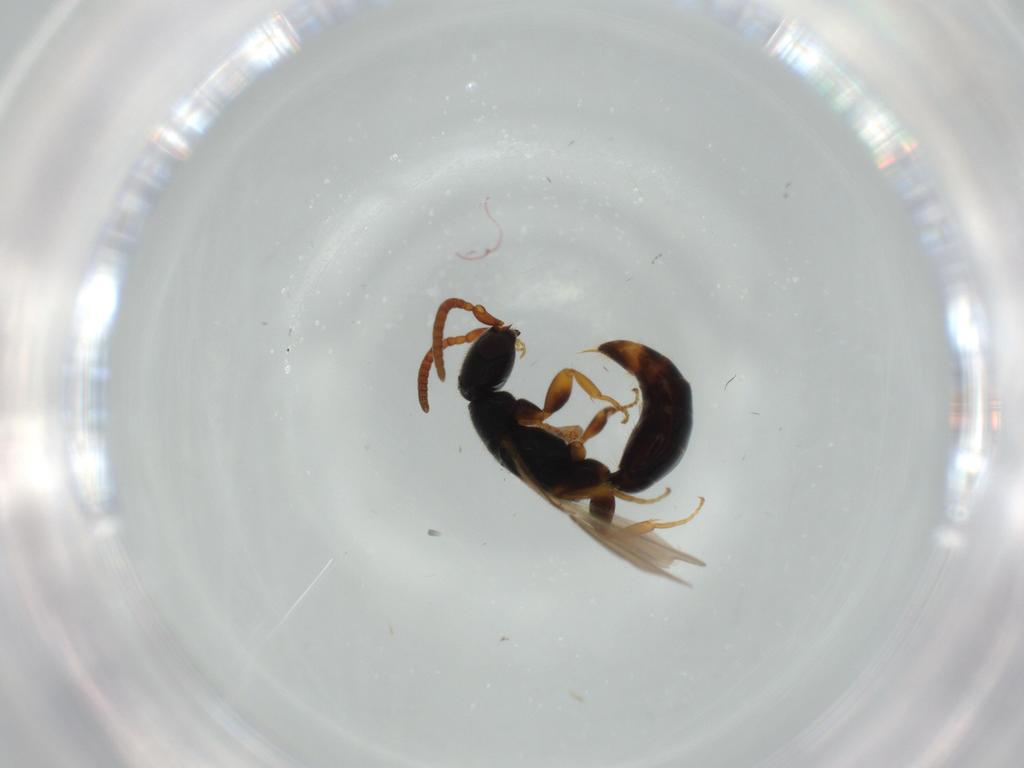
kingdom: Animalia
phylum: Arthropoda
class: Insecta
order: Hymenoptera
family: Bethylidae
